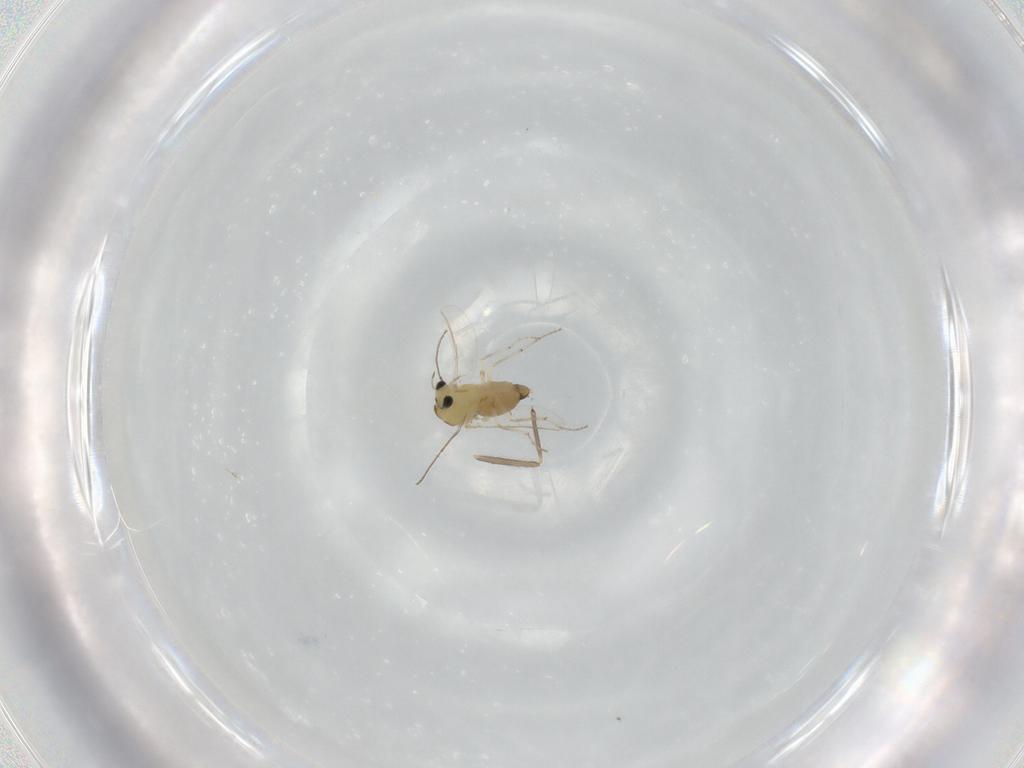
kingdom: Animalia
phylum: Arthropoda
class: Insecta
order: Diptera
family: Chironomidae
